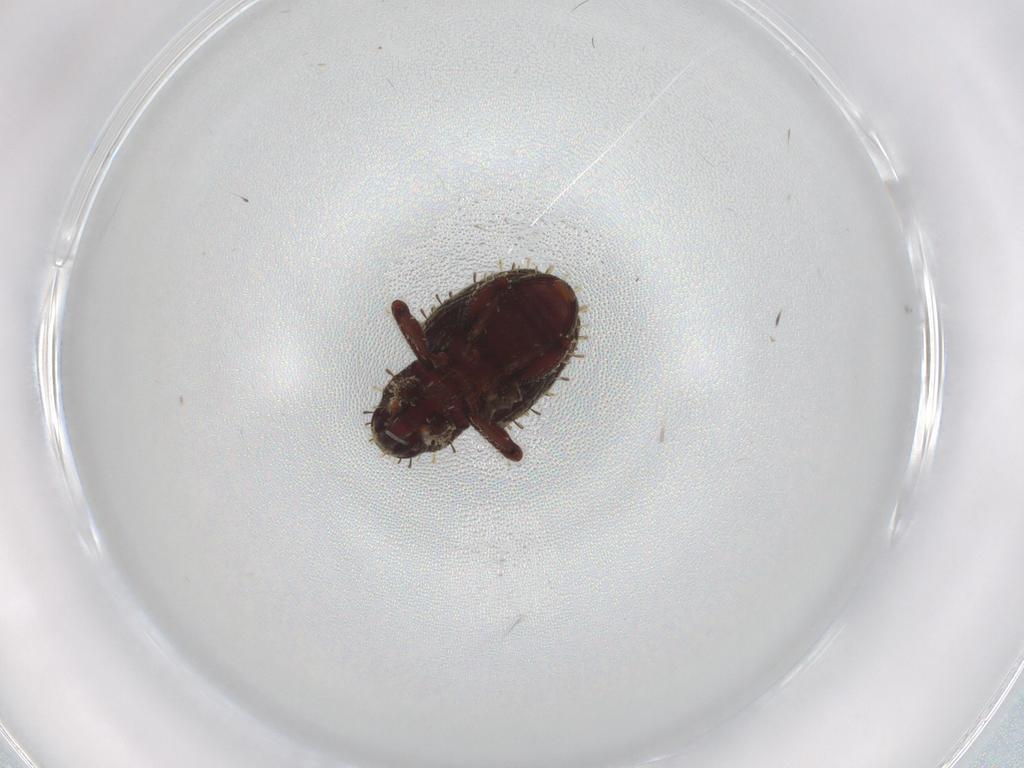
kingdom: Animalia
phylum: Arthropoda
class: Insecta
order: Coleoptera
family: Curculionidae
